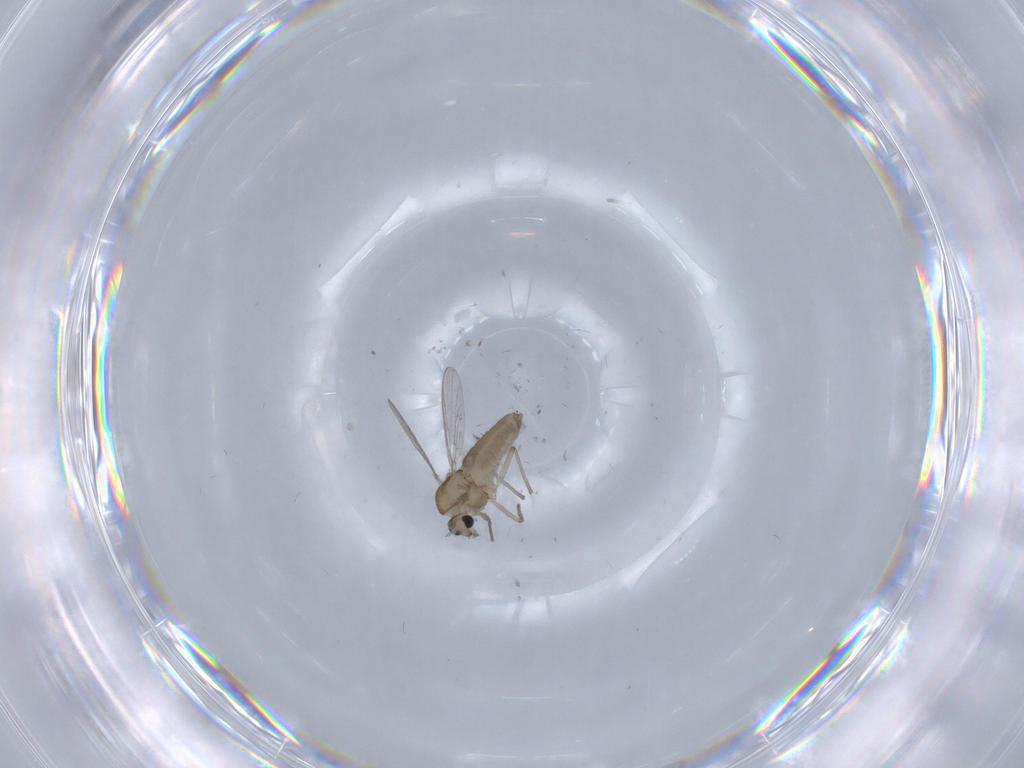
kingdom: Animalia
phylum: Arthropoda
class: Insecta
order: Diptera
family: Chironomidae
